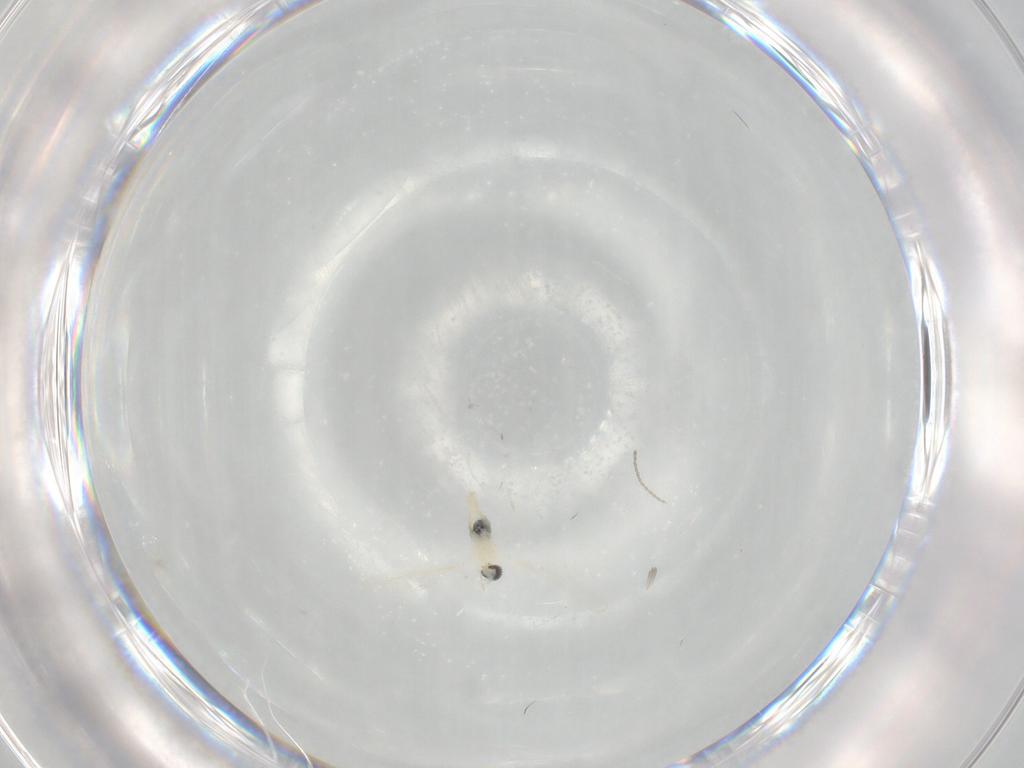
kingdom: Animalia
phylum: Arthropoda
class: Insecta
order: Diptera
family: Cecidomyiidae
